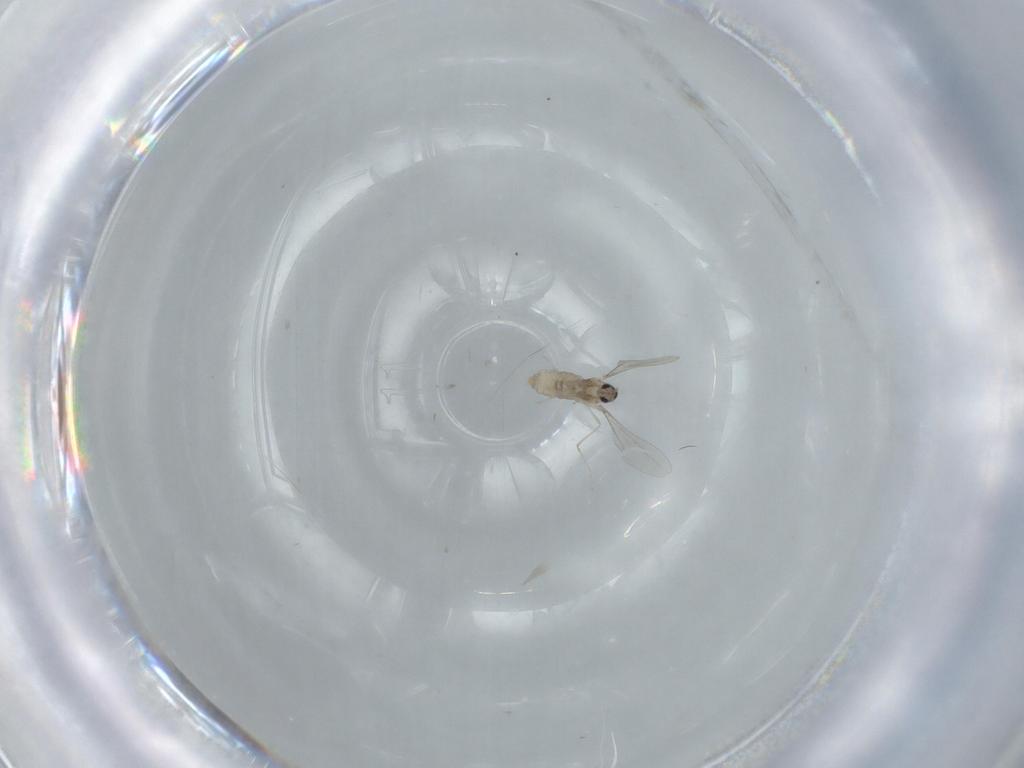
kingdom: Animalia
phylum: Arthropoda
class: Insecta
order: Diptera
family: Cecidomyiidae
